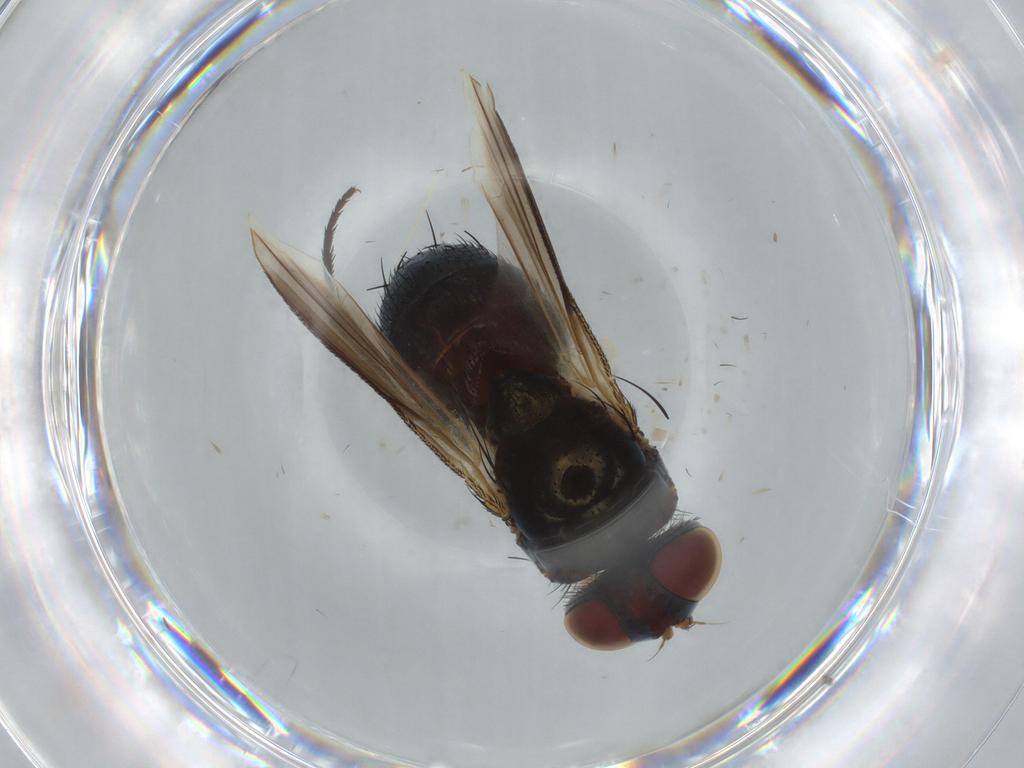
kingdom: Animalia
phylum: Arthropoda
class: Insecta
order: Diptera
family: Tachinidae
